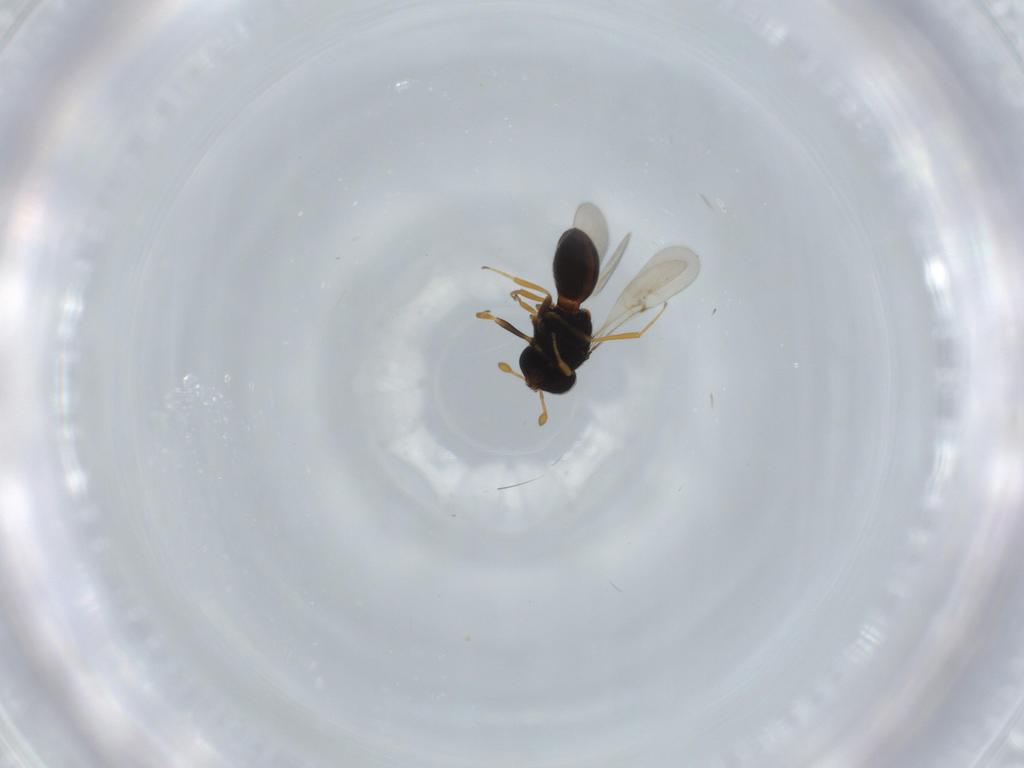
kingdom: Animalia
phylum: Arthropoda
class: Insecta
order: Hymenoptera
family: Scelionidae
